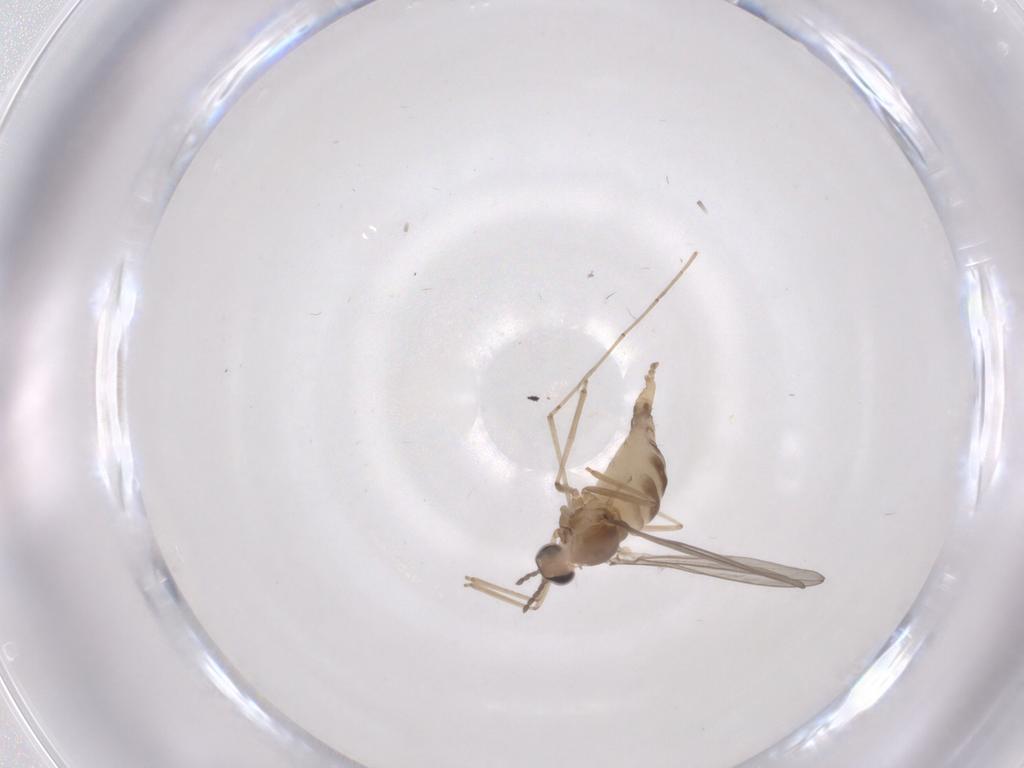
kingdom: Animalia
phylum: Arthropoda
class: Insecta
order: Diptera
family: Cecidomyiidae
